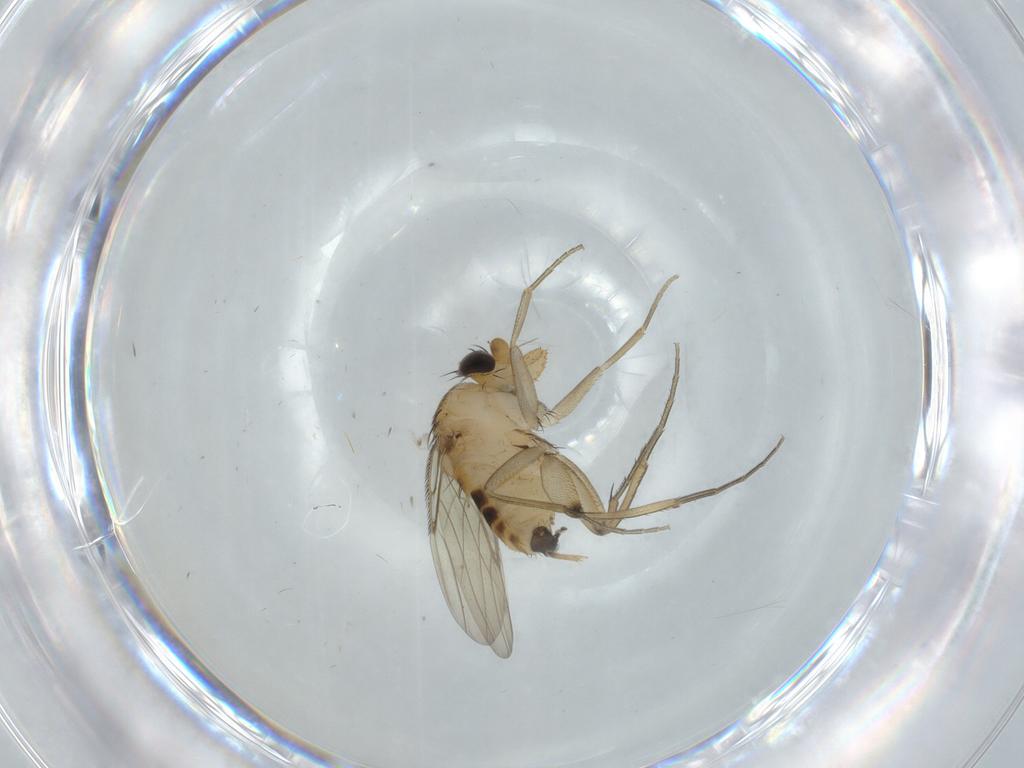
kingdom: Animalia
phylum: Arthropoda
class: Insecta
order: Diptera
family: Phoridae
